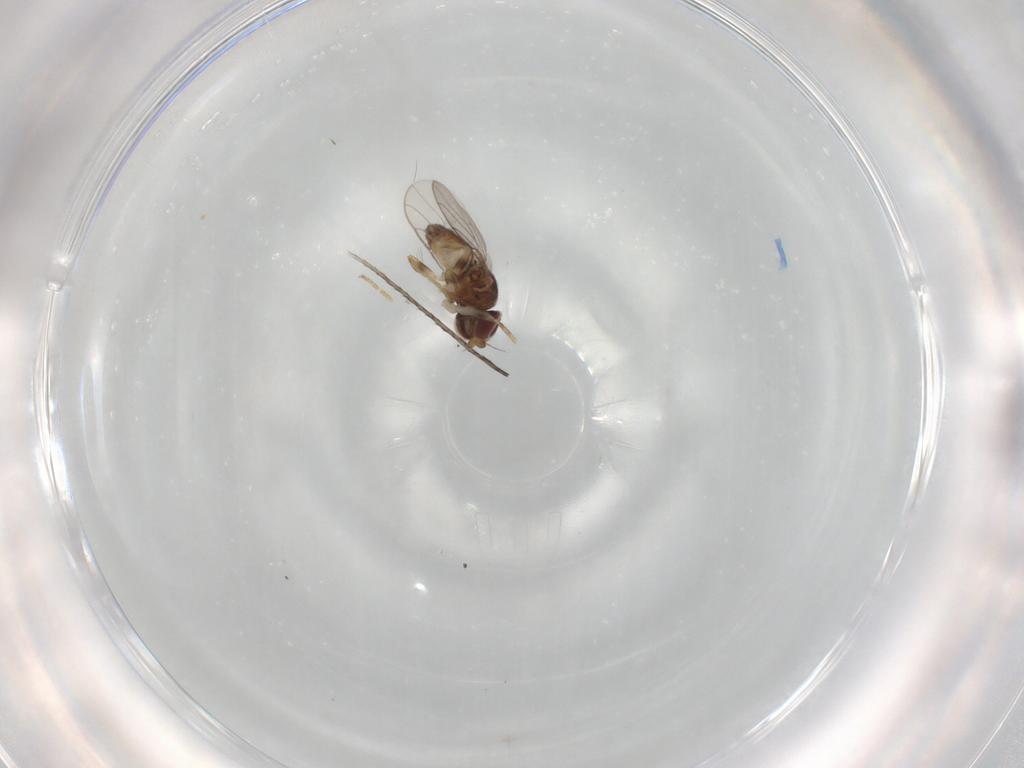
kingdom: Animalia
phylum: Arthropoda
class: Insecta
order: Diptera
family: Chloropidae
